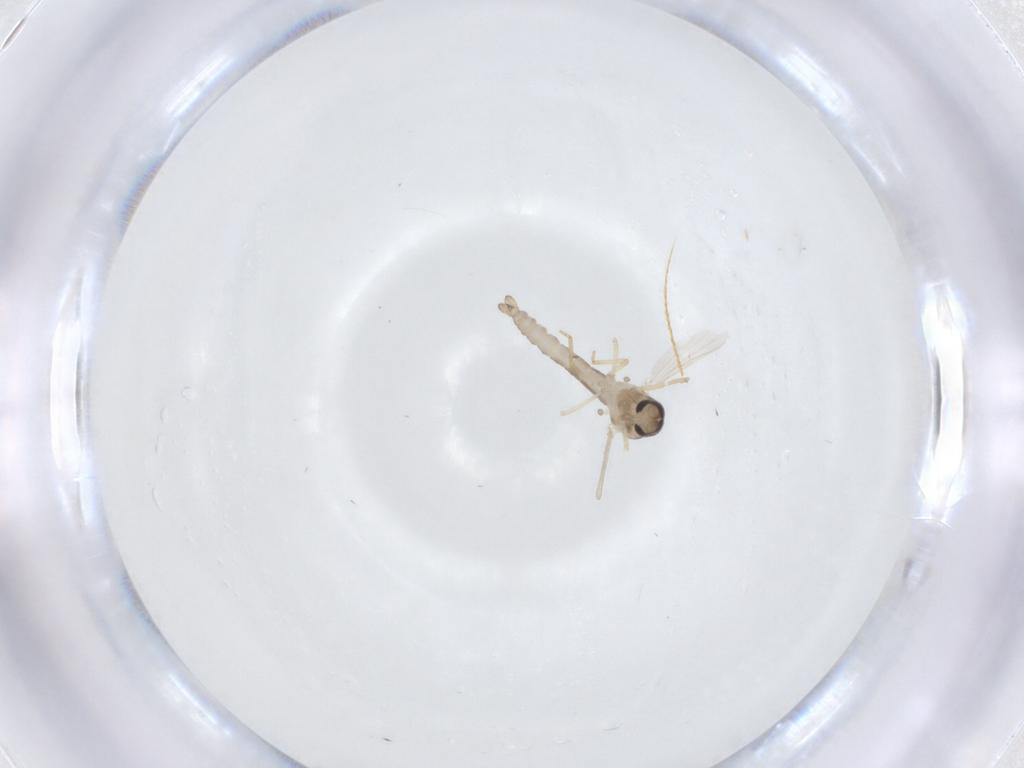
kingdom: Animalia
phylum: Arthropoda
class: Insecta
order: Diptera
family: Ceratopogonidae
